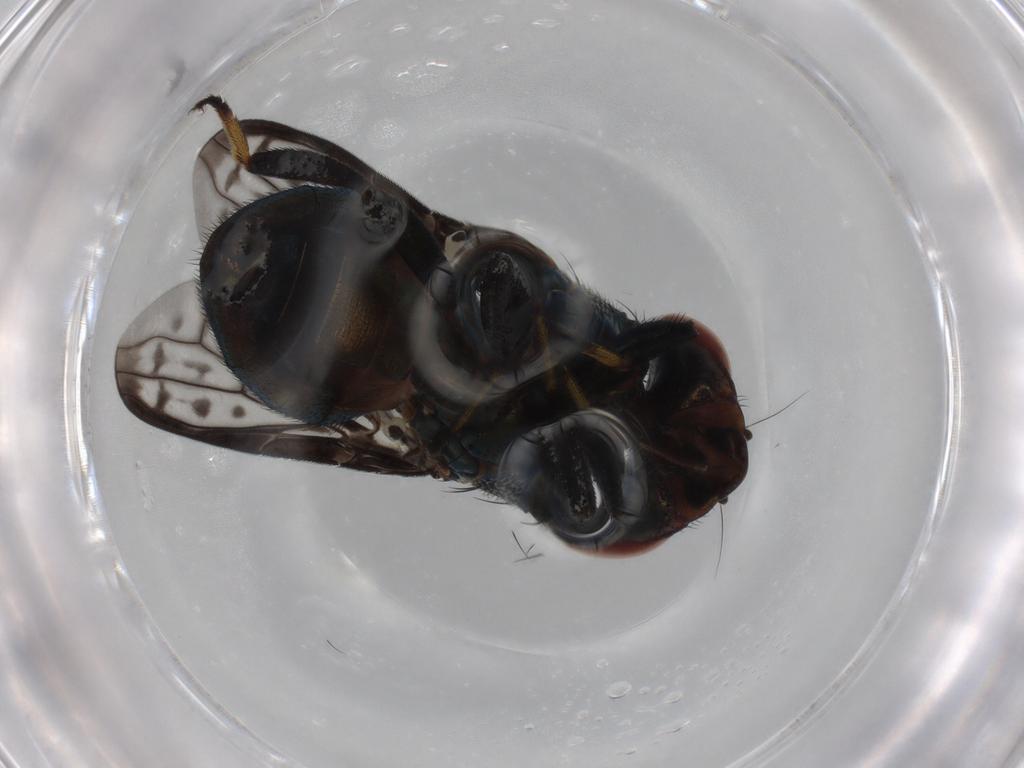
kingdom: Animalia
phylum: Arthropoda
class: Insecta
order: Diptera
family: Fannia
